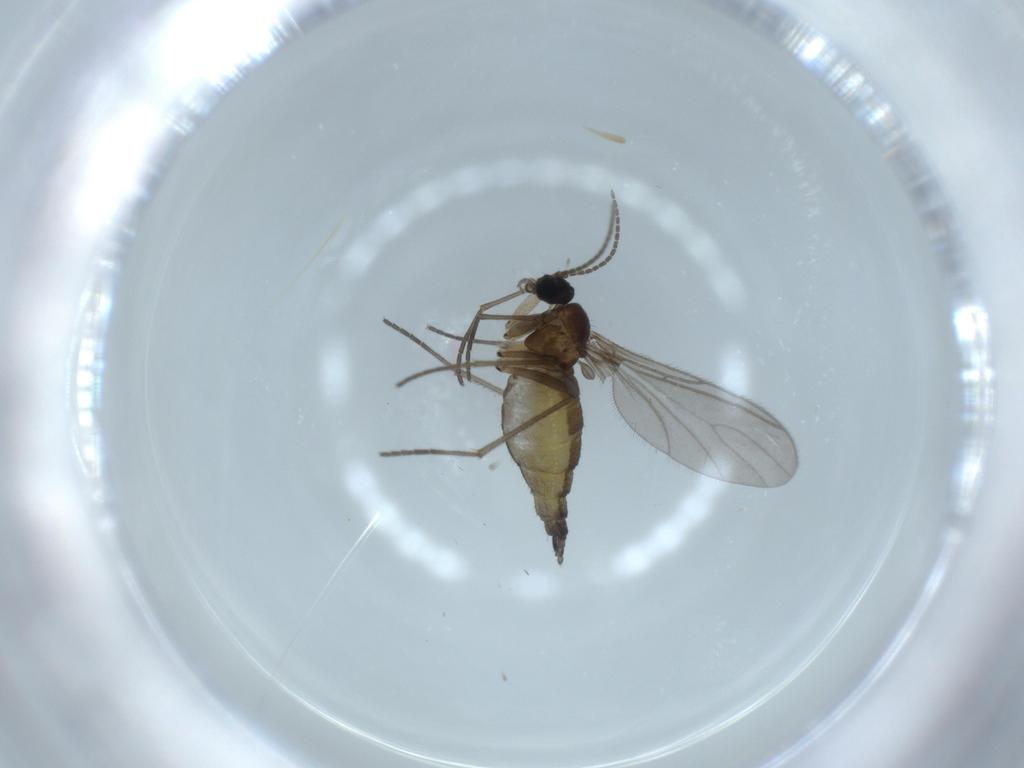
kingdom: Animalia
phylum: Arthropoda
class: Insecta
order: Diptera
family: Sciaridae
